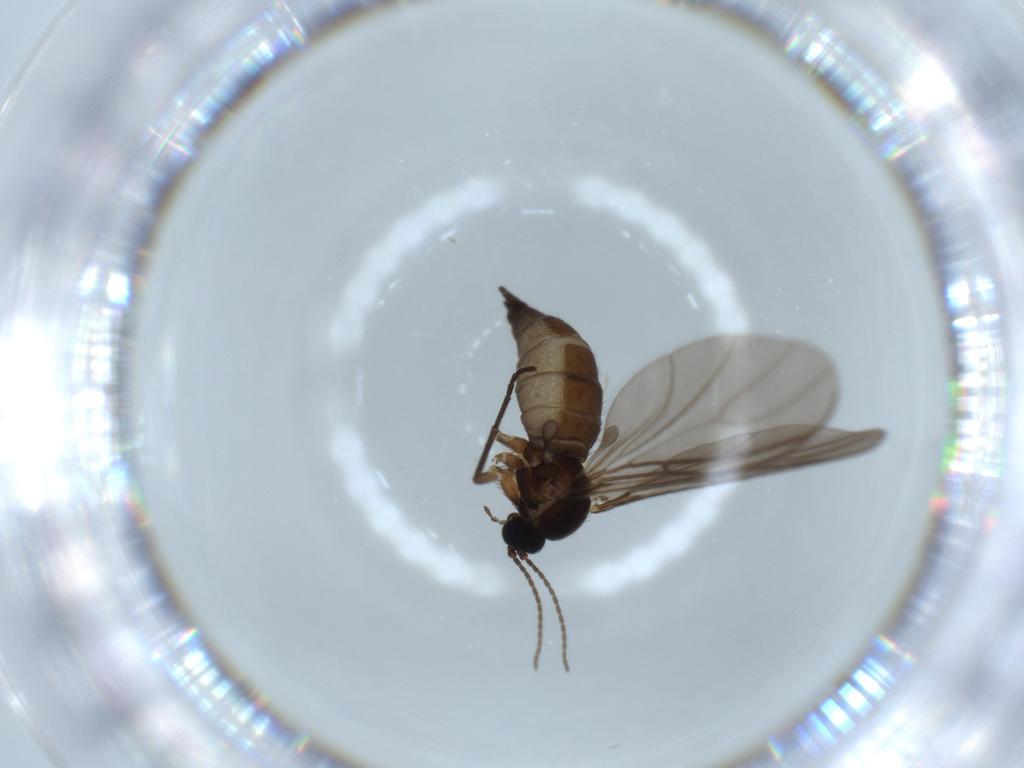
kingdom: Animalia
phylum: Arthropoda
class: Insecta
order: Diptera
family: Sciaridae
